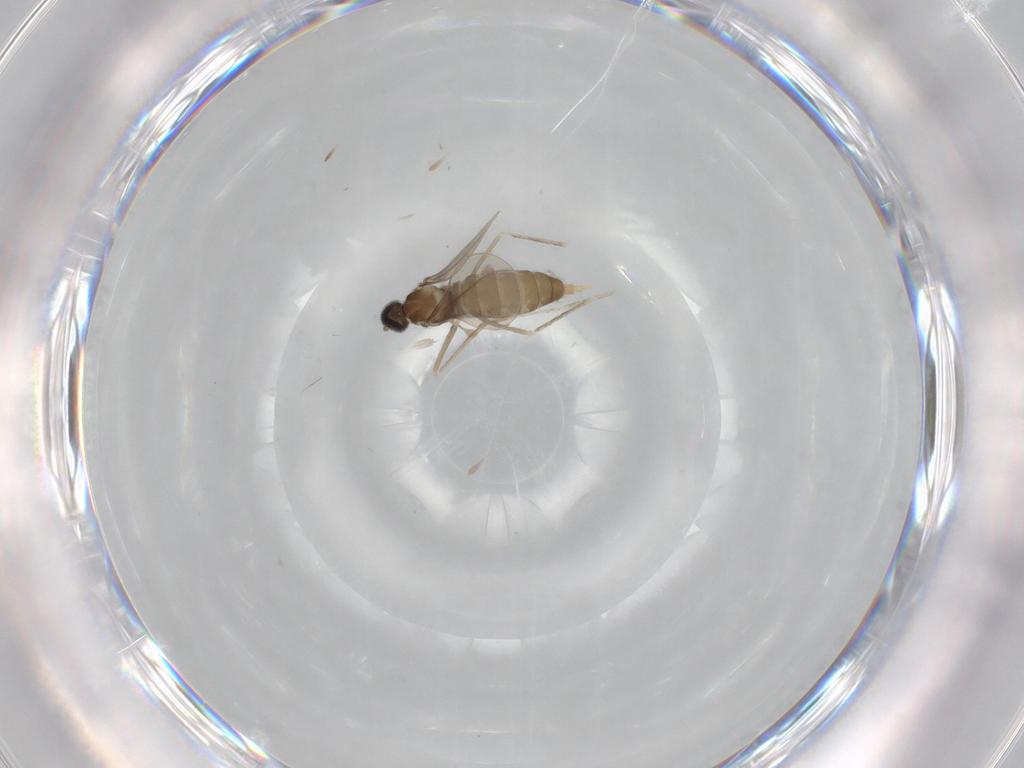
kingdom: Animalia
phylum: Arthropoda
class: Insecta
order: Diptera
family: Cecidomyiidae
